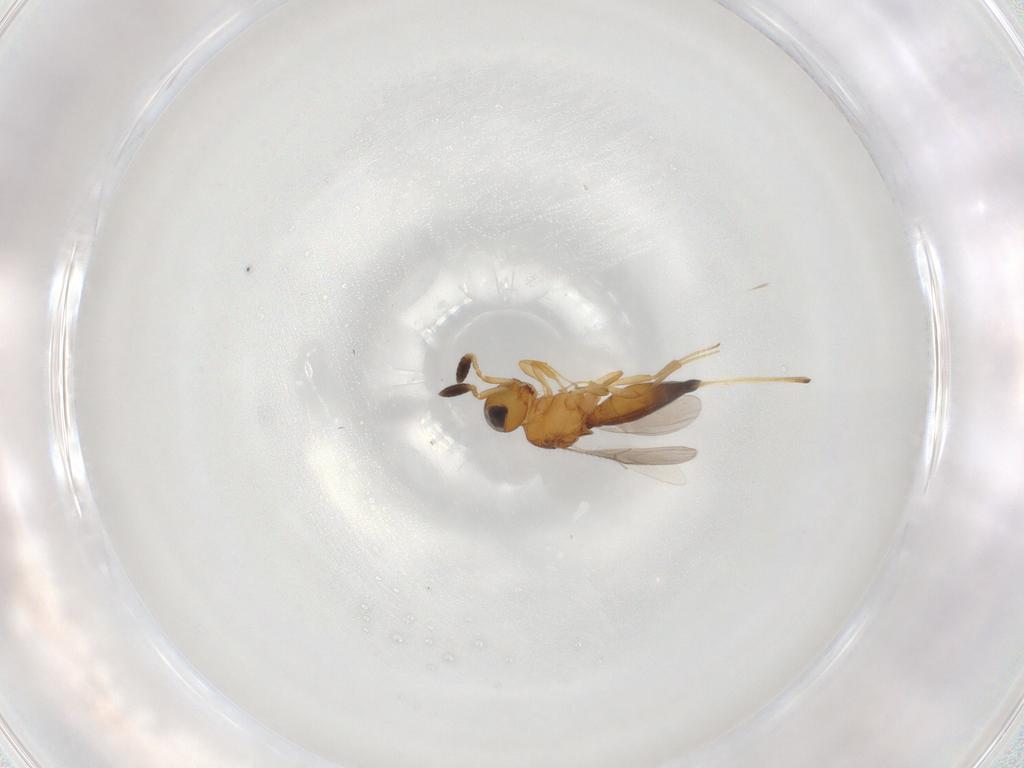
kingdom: Animalia
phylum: Arthropoda
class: Insecta
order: Hymenoptera
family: Scelionidae
